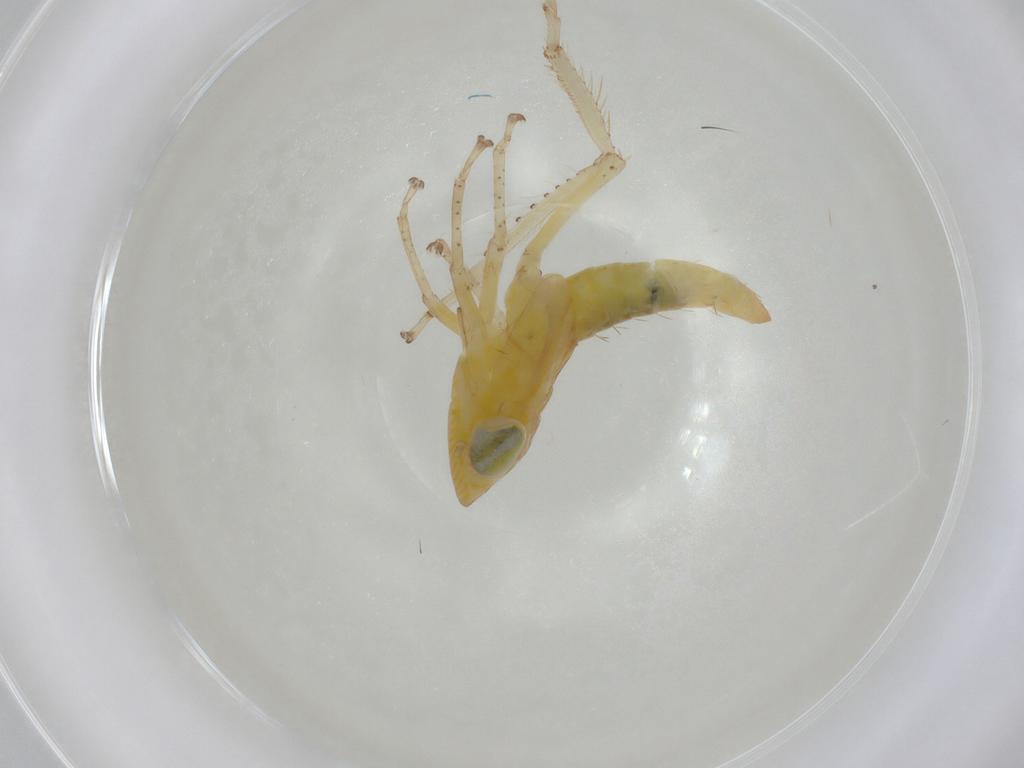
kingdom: Animalia
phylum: Arthropoda
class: Insecta
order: Hemiptera
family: Cicadellidae
